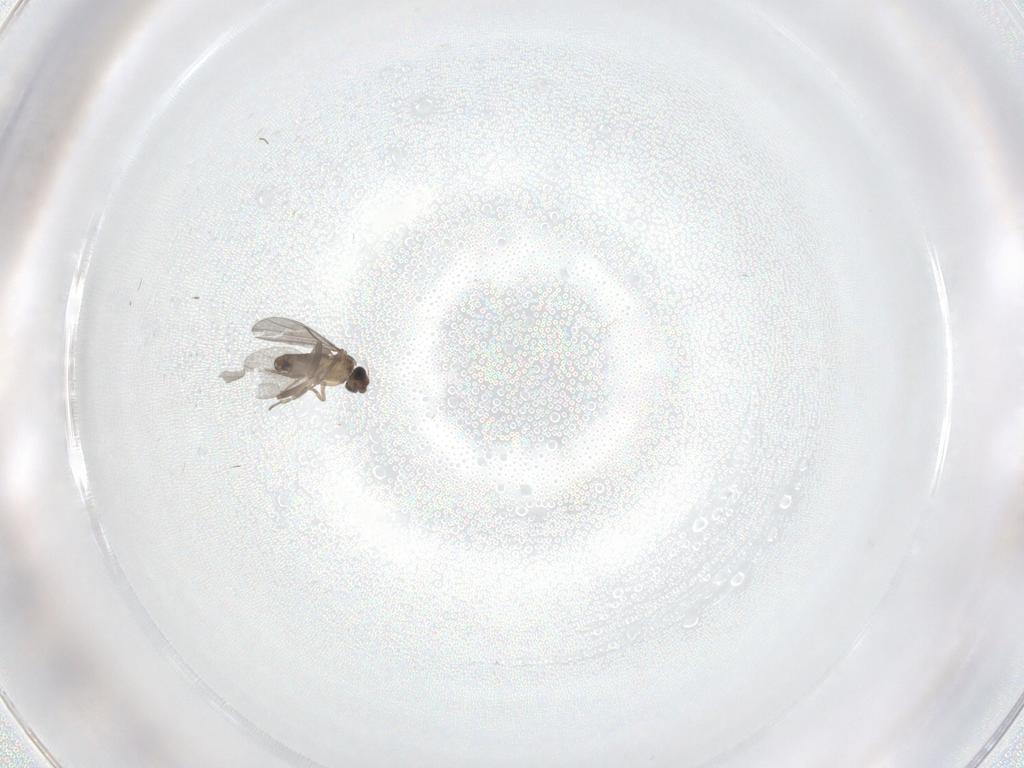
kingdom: Animalia
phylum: Arthropoda
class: Insecta
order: Diptera
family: Cecidomyiidae
